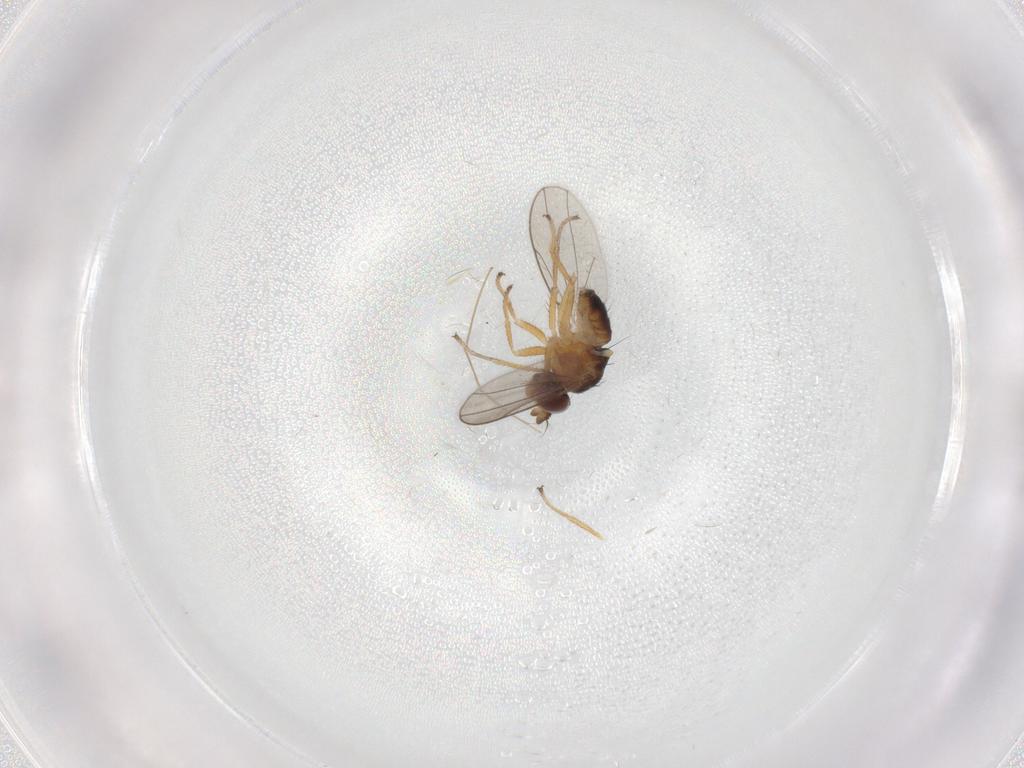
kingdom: Animalia
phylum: Arthropoda
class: Insecta
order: Diptera
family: Ephydridae
